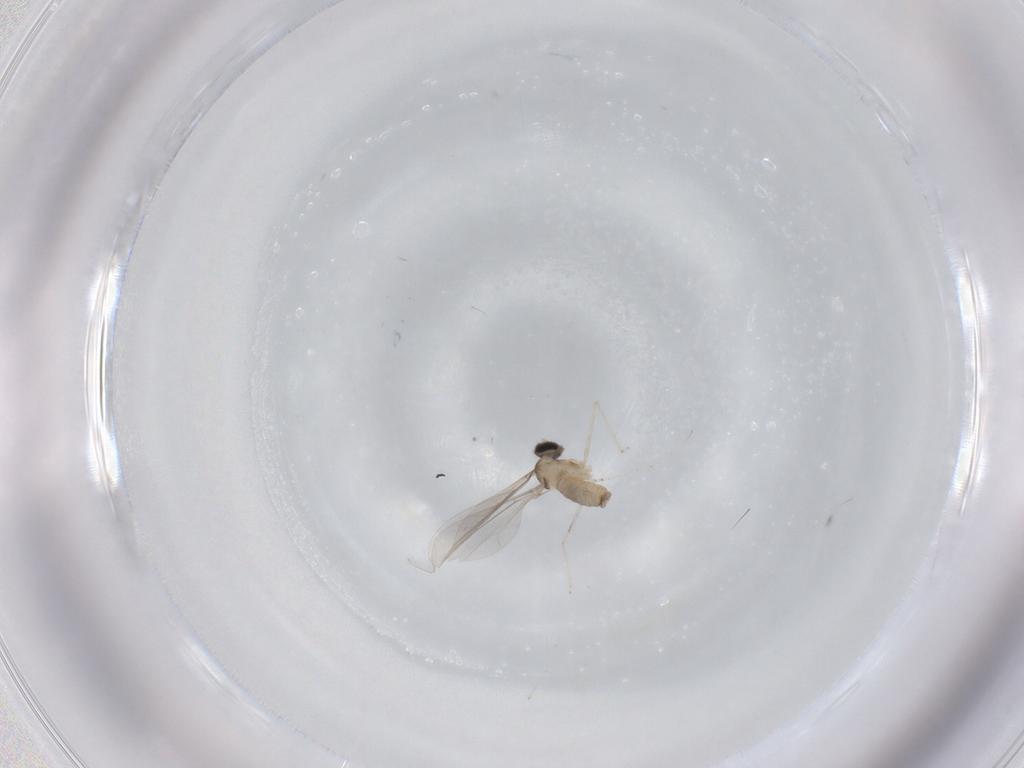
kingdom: Animalia
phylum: Arthropoda
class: Insecta
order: Diptera
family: Cecidomyiidae
